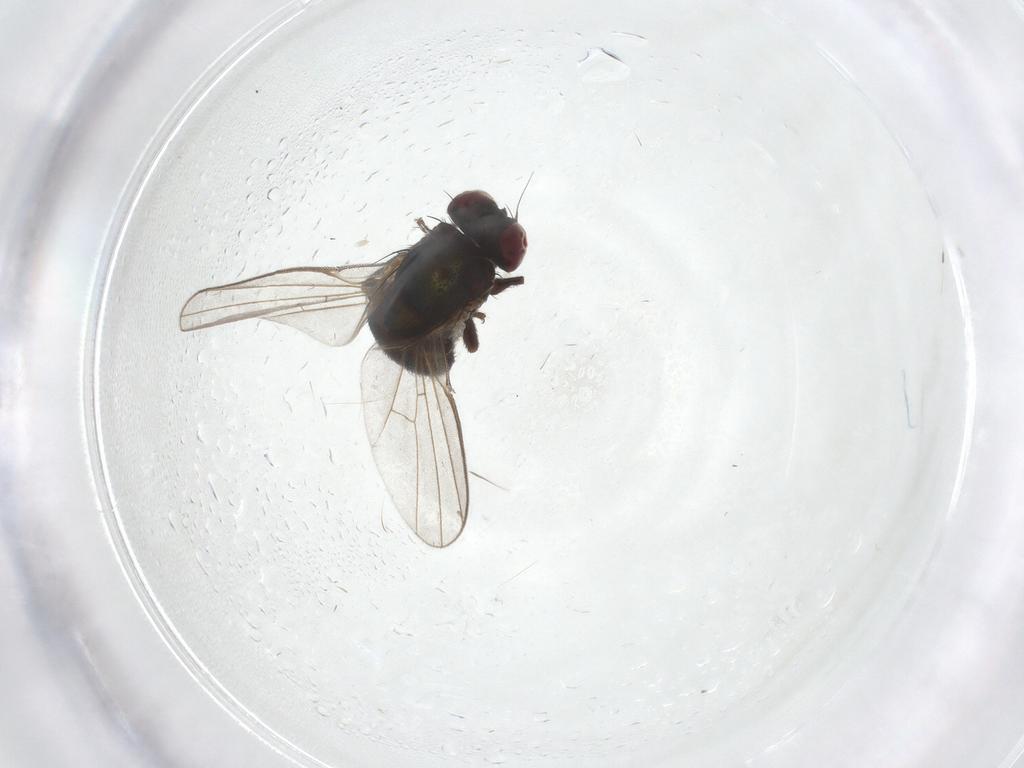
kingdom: Animalia
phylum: Arthropoda
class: Insecta
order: Diptera
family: Agromyzidae
